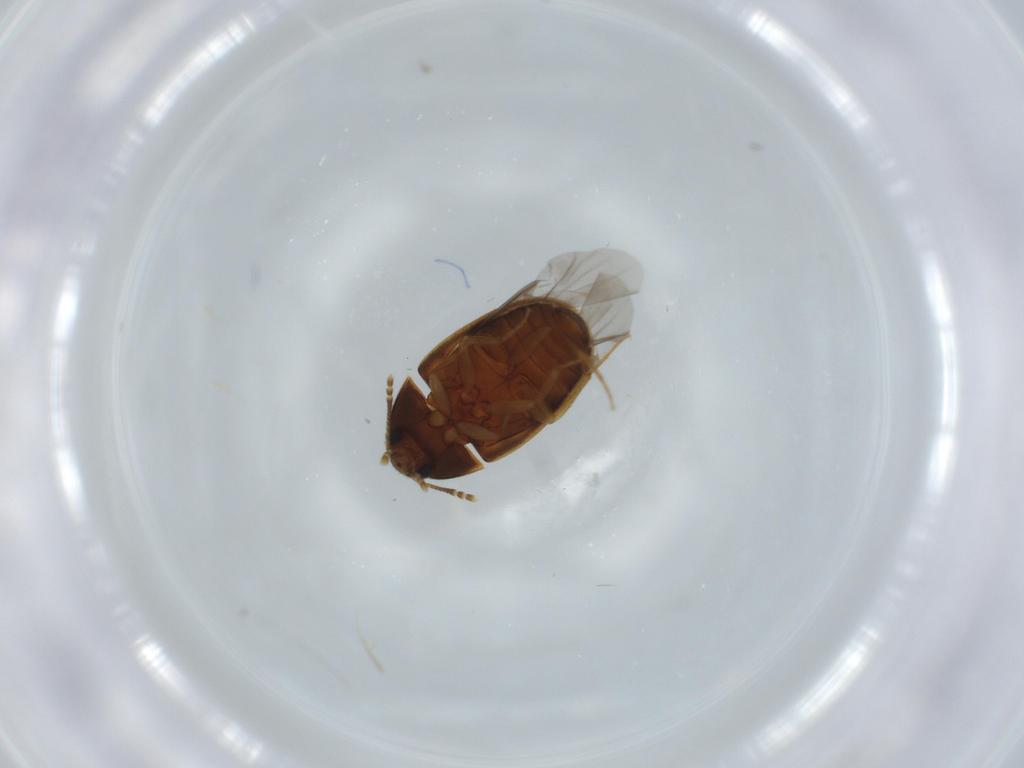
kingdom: Animalia
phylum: Arthropoda
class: Insecta
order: Coleoptera
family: Mycetophagidae
